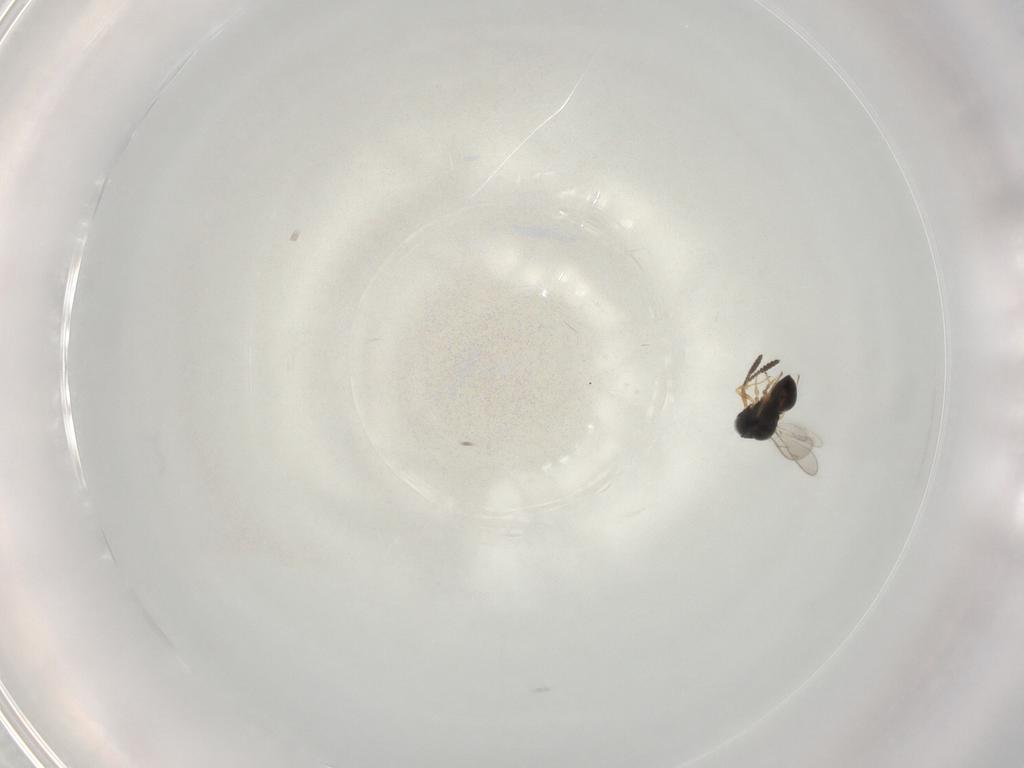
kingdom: Animalia
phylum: Arthropoda
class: Insecta
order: Hymenoptera
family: Scelionidae
